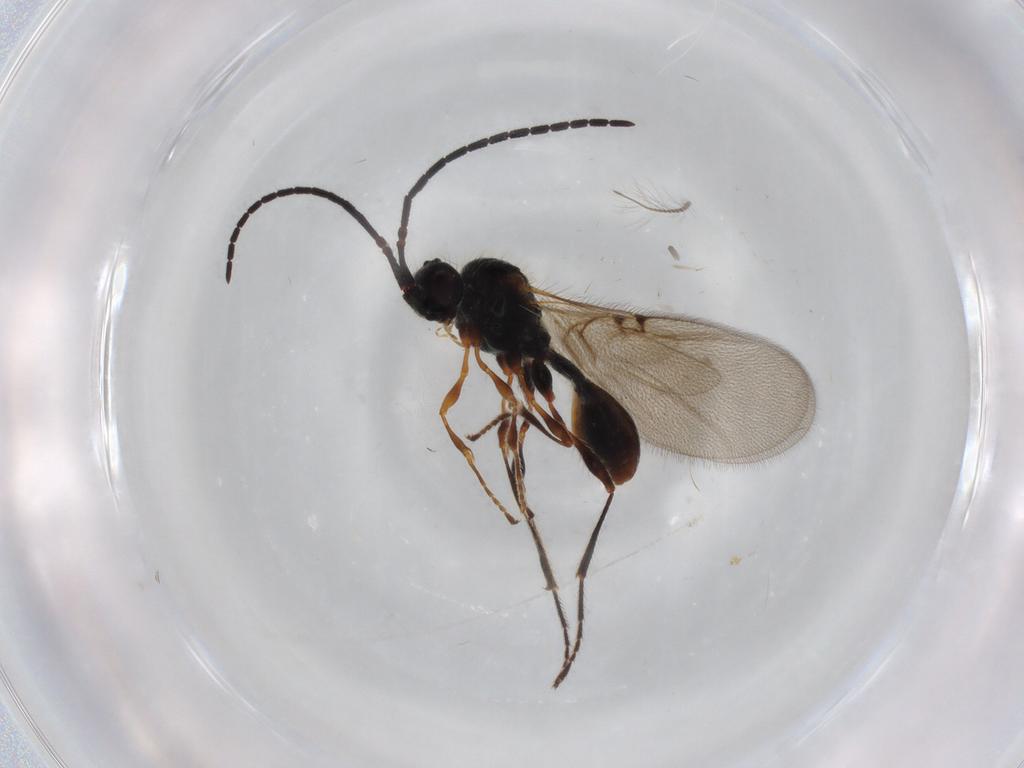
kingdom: Animalia
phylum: Arthropoda
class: Insecta
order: Hymenoptera
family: Diapriidae
